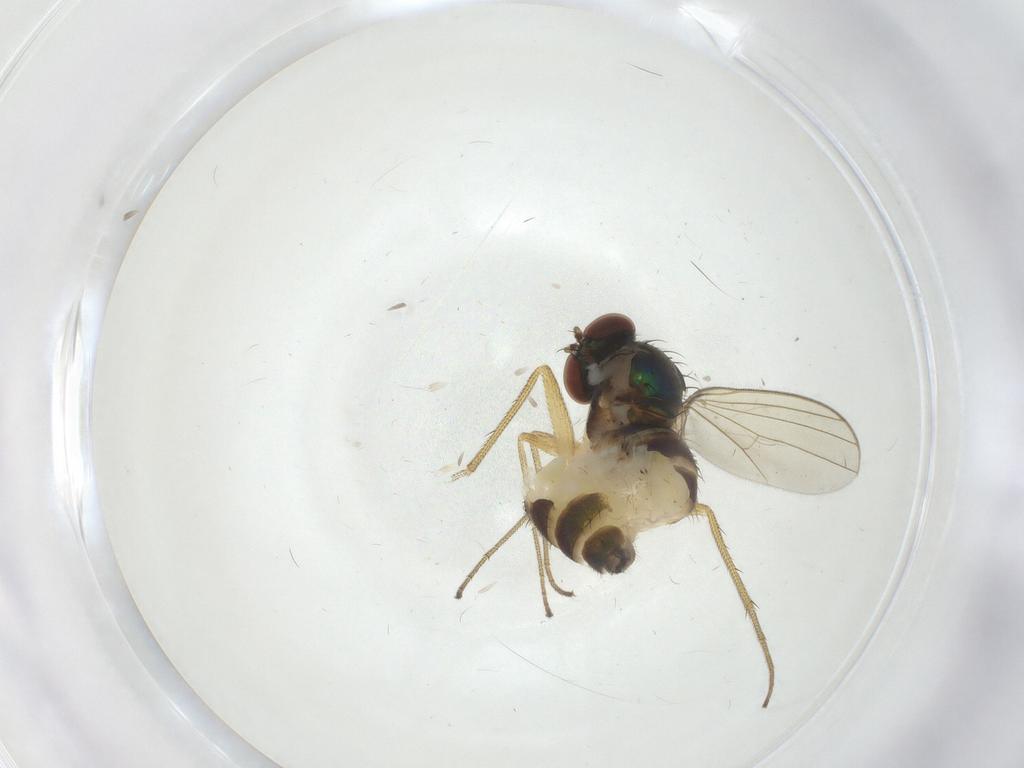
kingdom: Animalia
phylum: Arthropoda
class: Insecta
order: Diptera
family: Dolichopodidae
